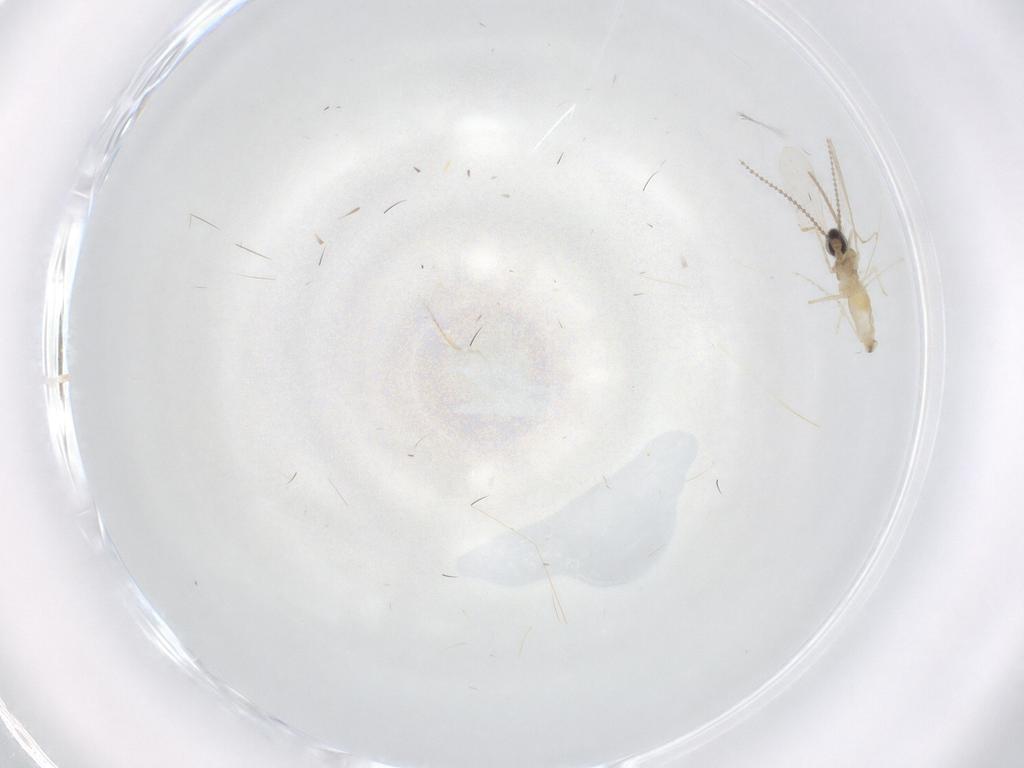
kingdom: Animalia
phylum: Arthropoda
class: Insecta
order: Diptera
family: Cecidomyiidae
